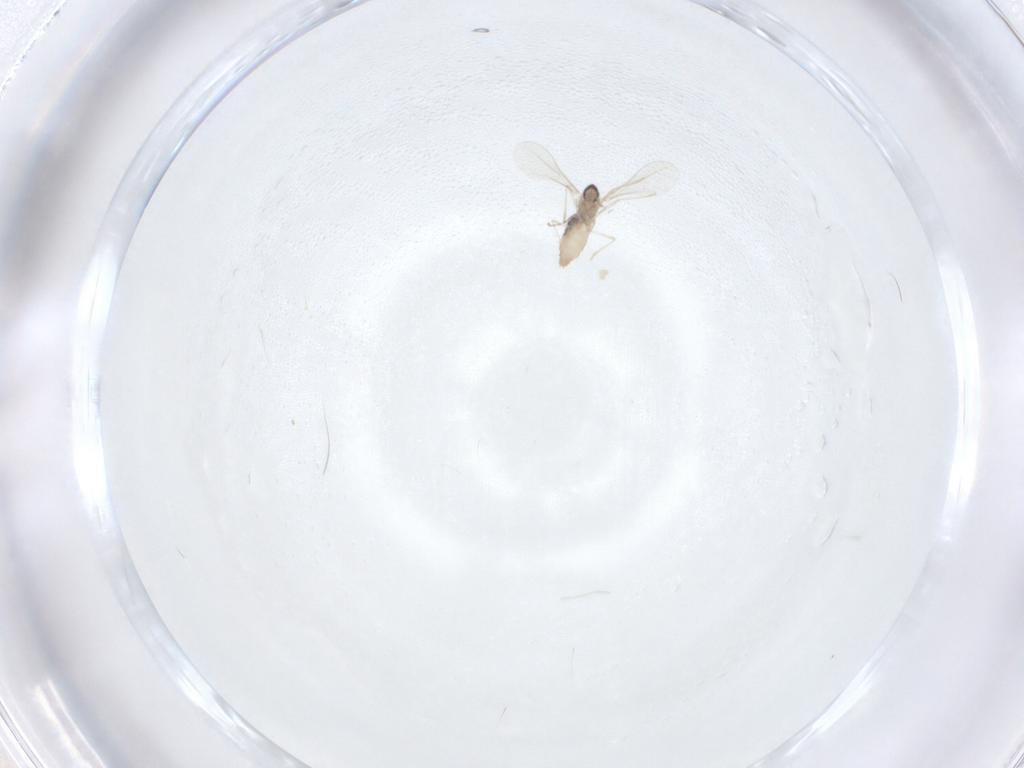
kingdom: Animalia
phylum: Arthropoda
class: Insecta
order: Diptera
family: Cecidomyiidae
